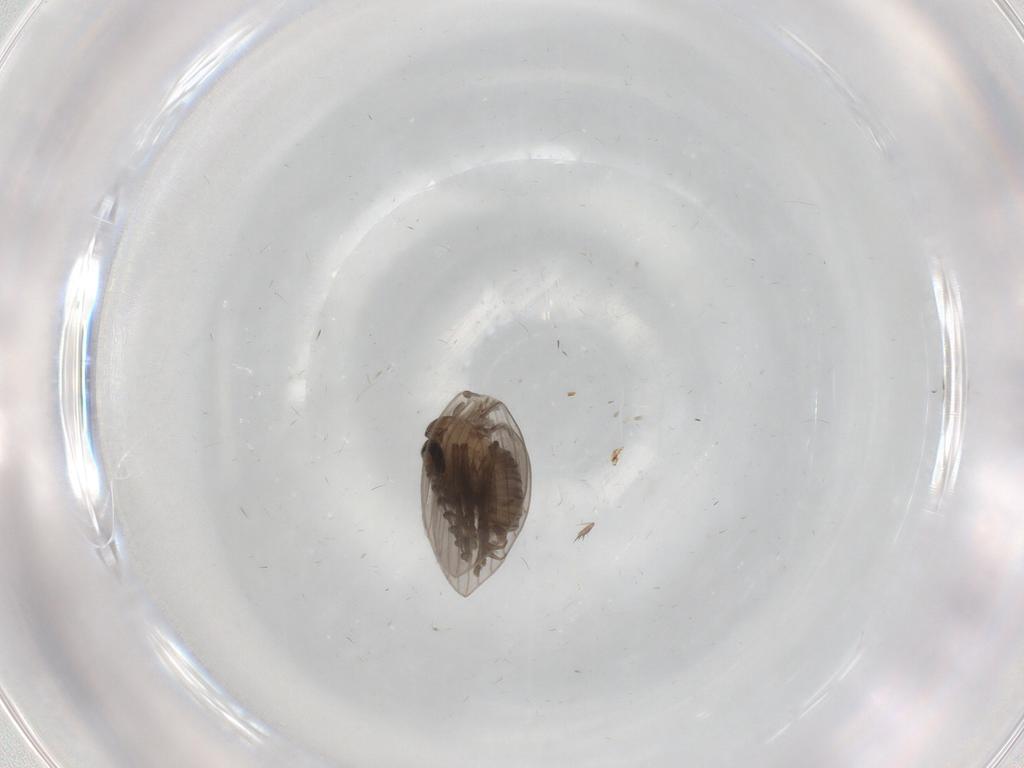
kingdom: Animalia
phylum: Arthropoda
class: Insecta
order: Diptera
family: Psychodidae
